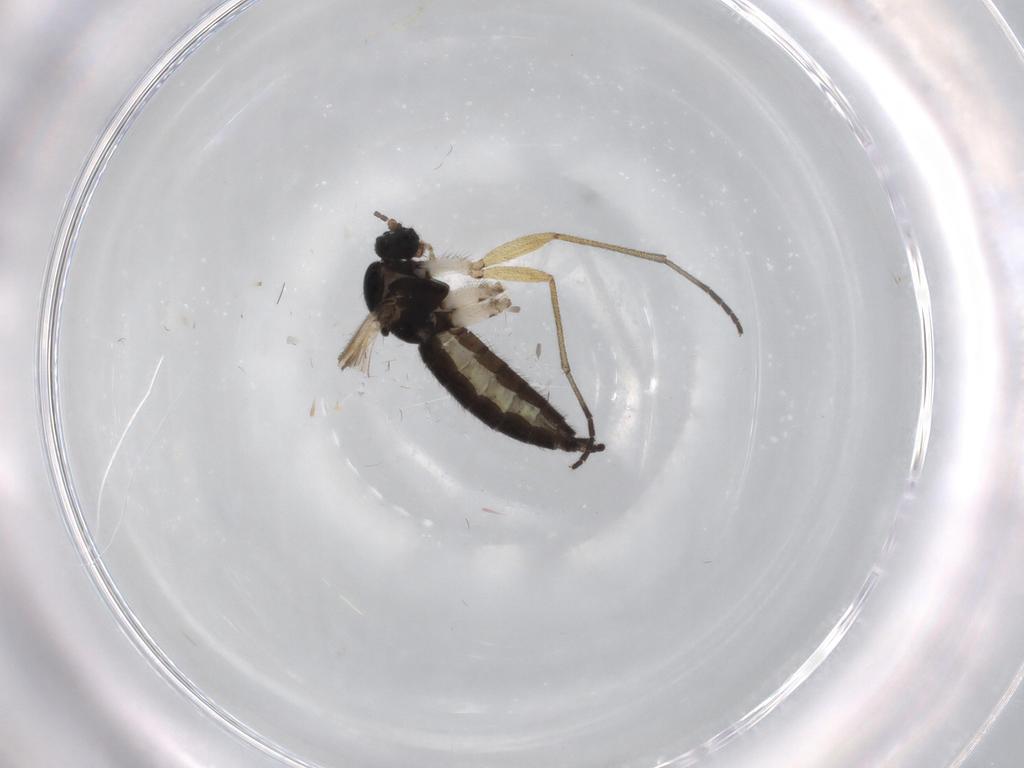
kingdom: Animalia
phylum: Arthropoda
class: Insecta
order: Diptera
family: Sciaridae
